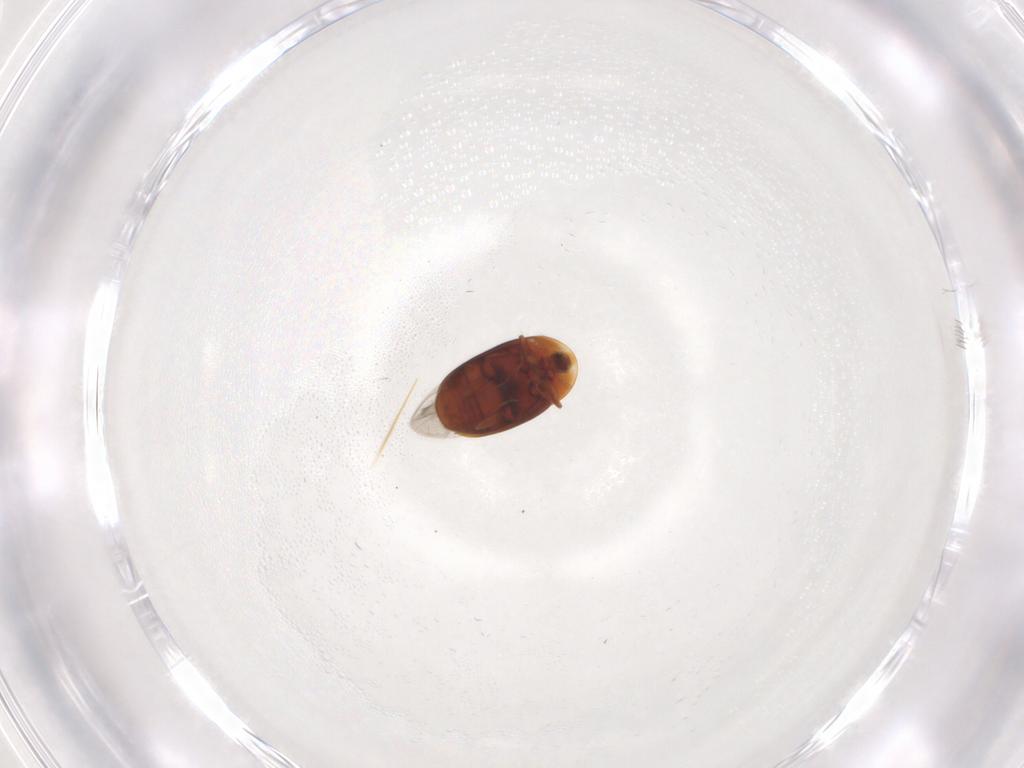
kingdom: Animalia
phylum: Arthropoda
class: Insecta
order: Coleoptera
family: Corylophidae
